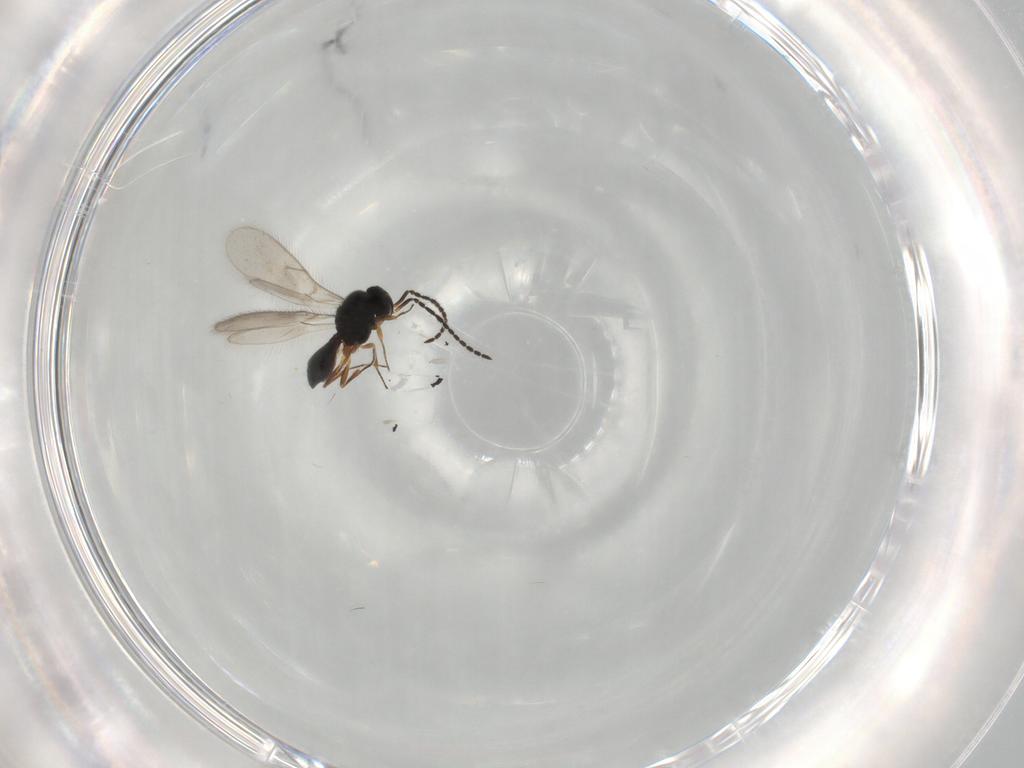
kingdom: Animalia
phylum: Arthropoda
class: Insecta
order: Hymenoptera
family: Scelionidae
